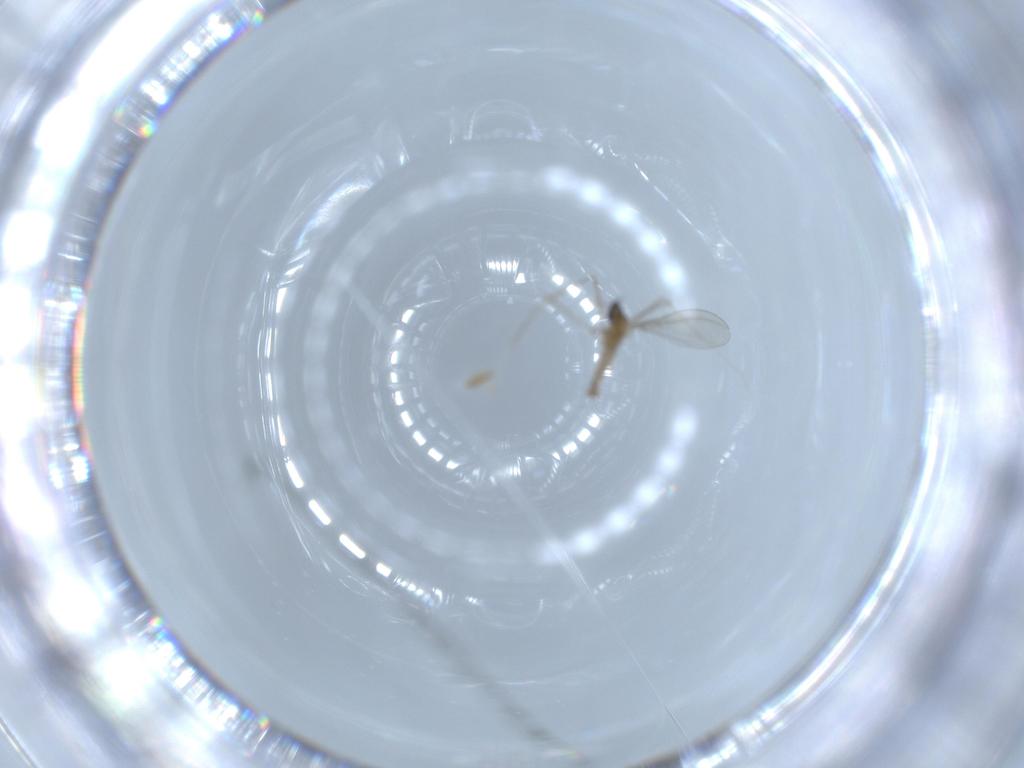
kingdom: Animalia
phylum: Arthropoda
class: Insecta
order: Diptera
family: Cecidomyiidae
